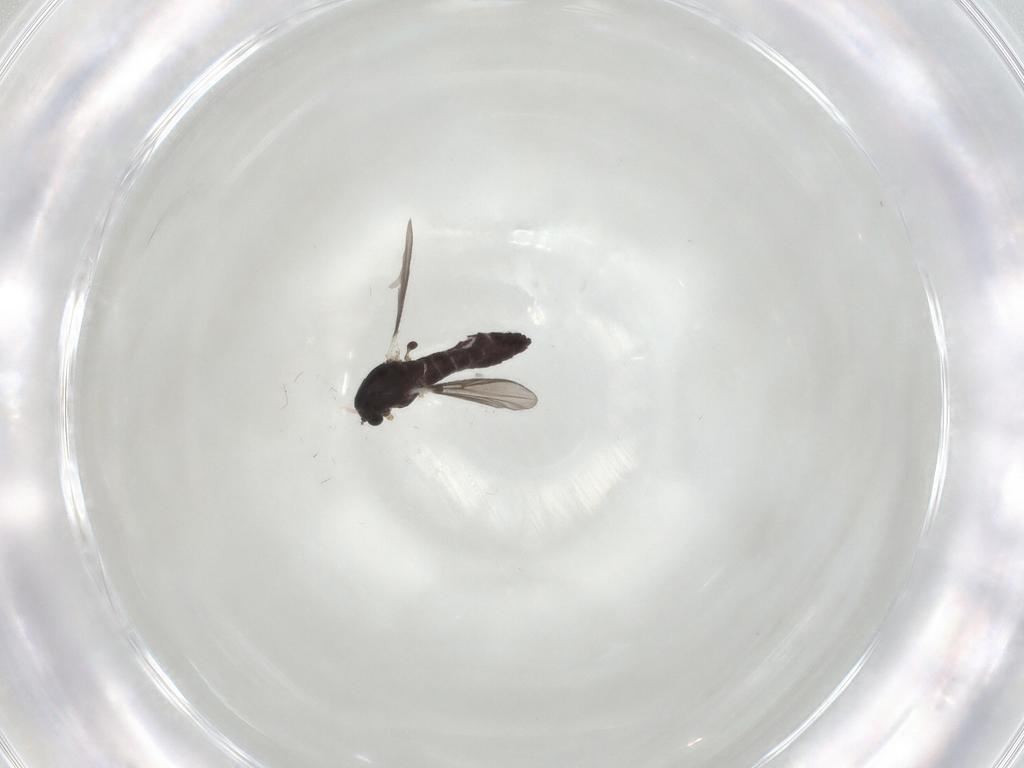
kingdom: Animalia
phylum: Arthropoda
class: Insecta
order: Diptera
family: Chironomidae
